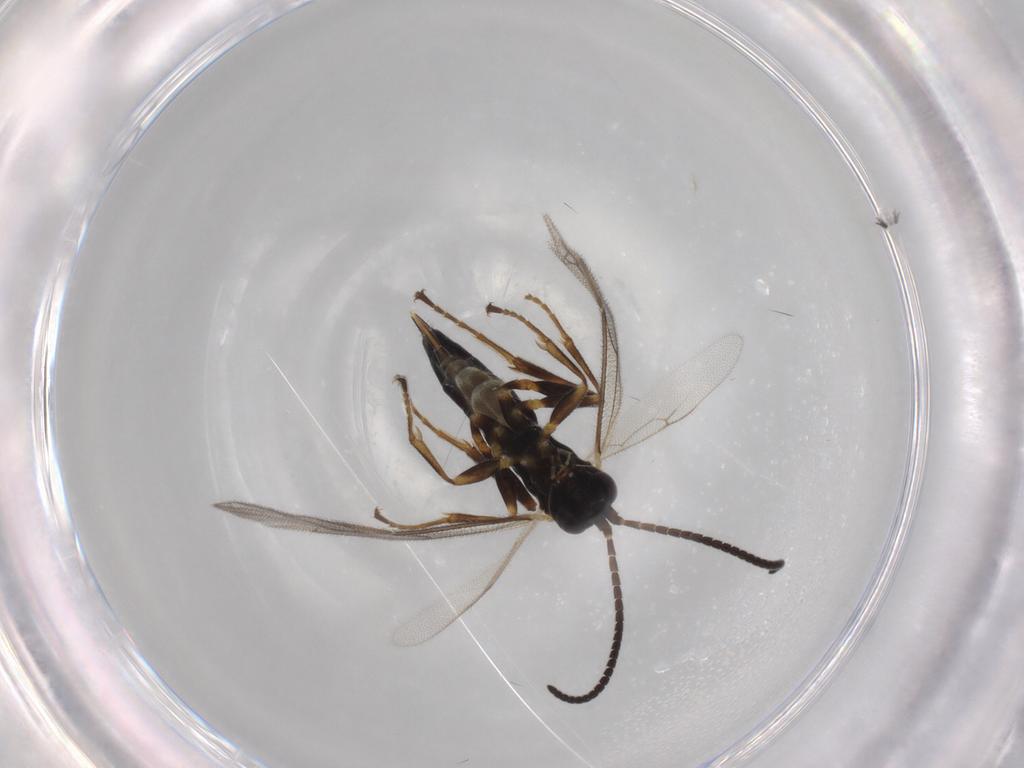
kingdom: Animalia
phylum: Arthropoda
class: Insecta
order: Hymenoptera
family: Ichneumonidae
